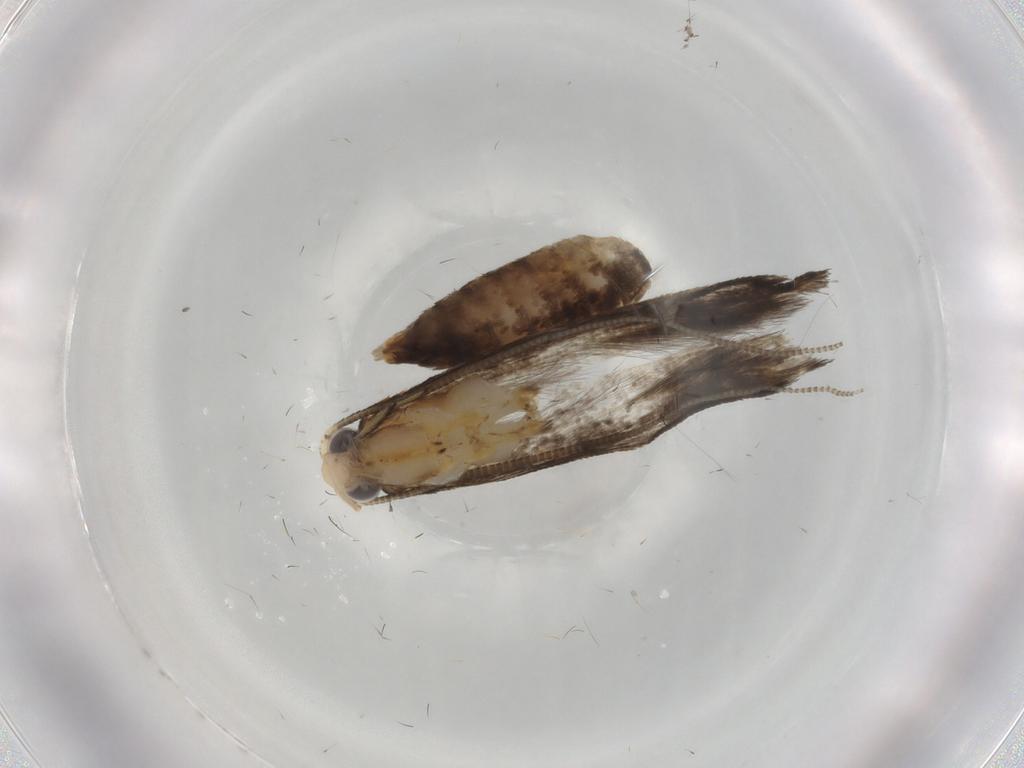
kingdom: Animalia
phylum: Arthropoda
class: Insecta
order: Lepidoptera
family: Tineidae
